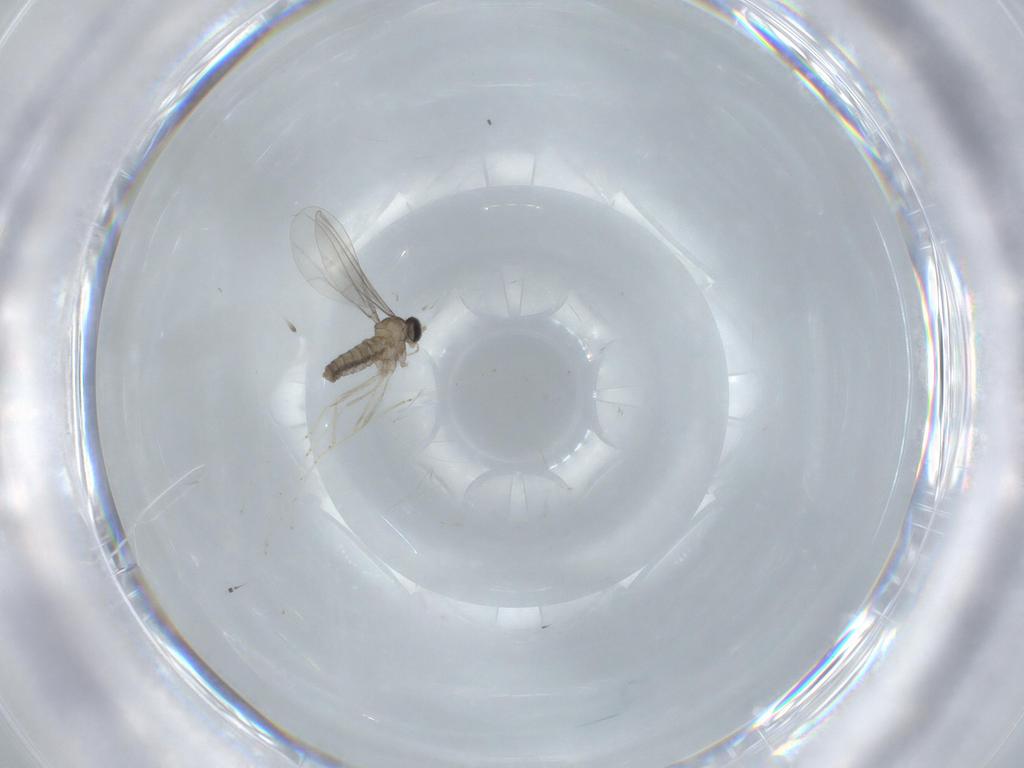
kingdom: Animalia
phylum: Arthropoda
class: Insecta
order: Diptera
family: Cecidomyiidae
